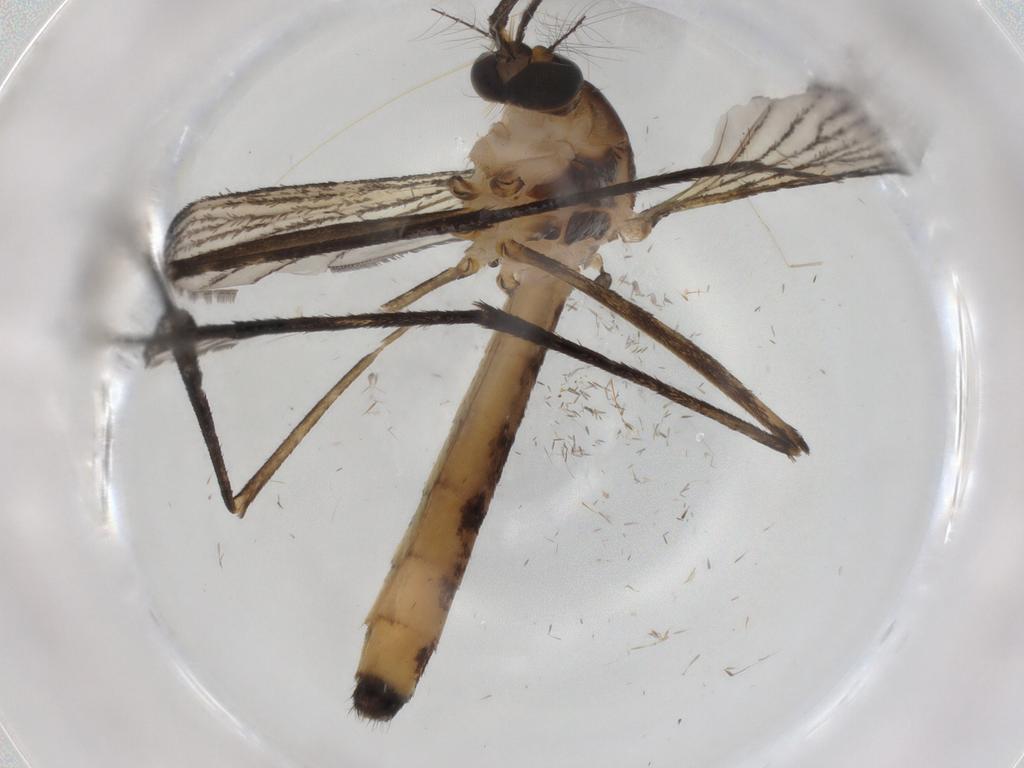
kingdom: Animalia
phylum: Arthropoda
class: Insecta
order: Diptera
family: Culicidae
